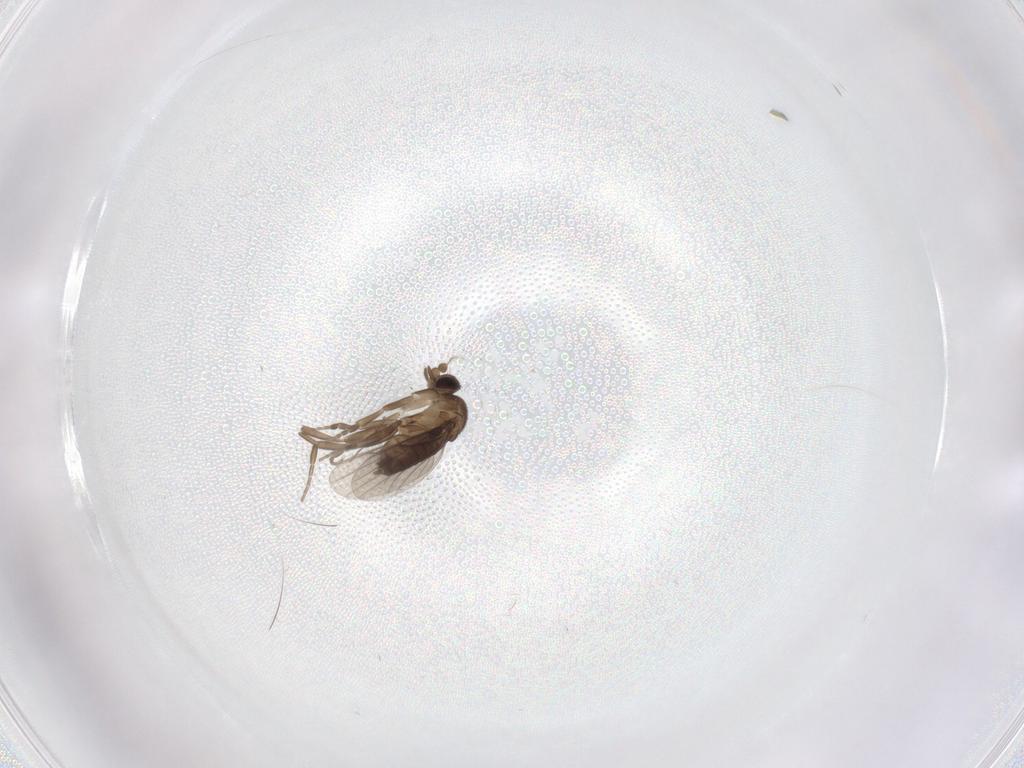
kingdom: Animalia
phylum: Arthropoda
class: Insecta
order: Diptera
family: Phoridae
